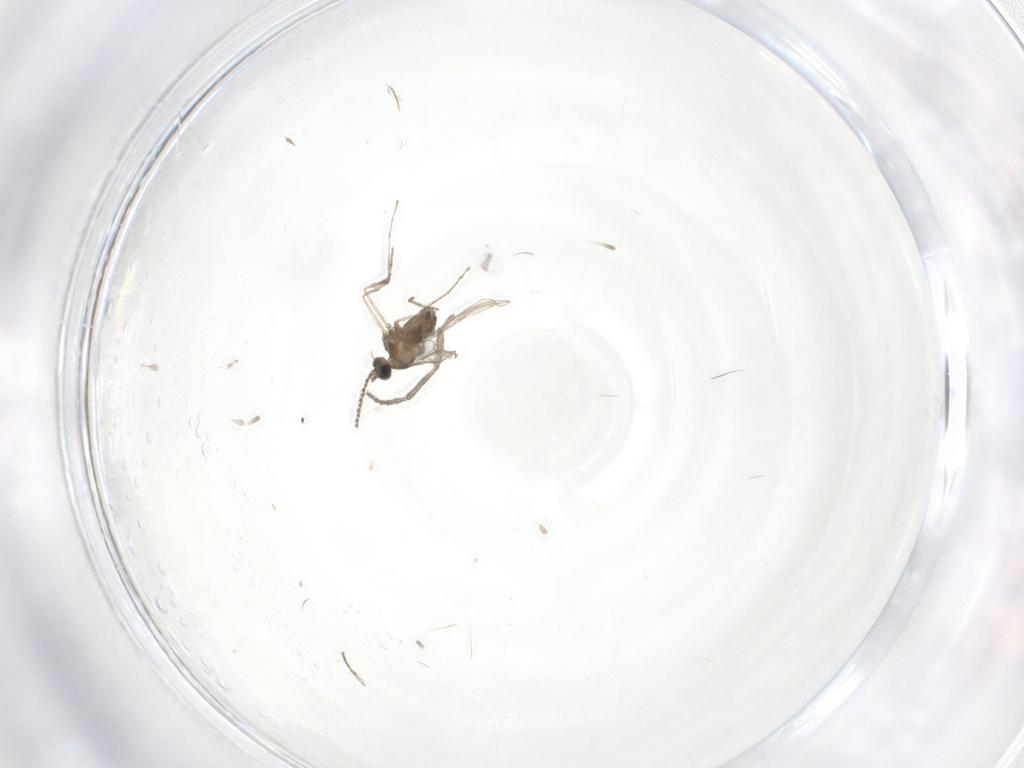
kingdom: Animalia
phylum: Arthropoda
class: Insecta
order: Diptera
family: Cecidomyiidae
